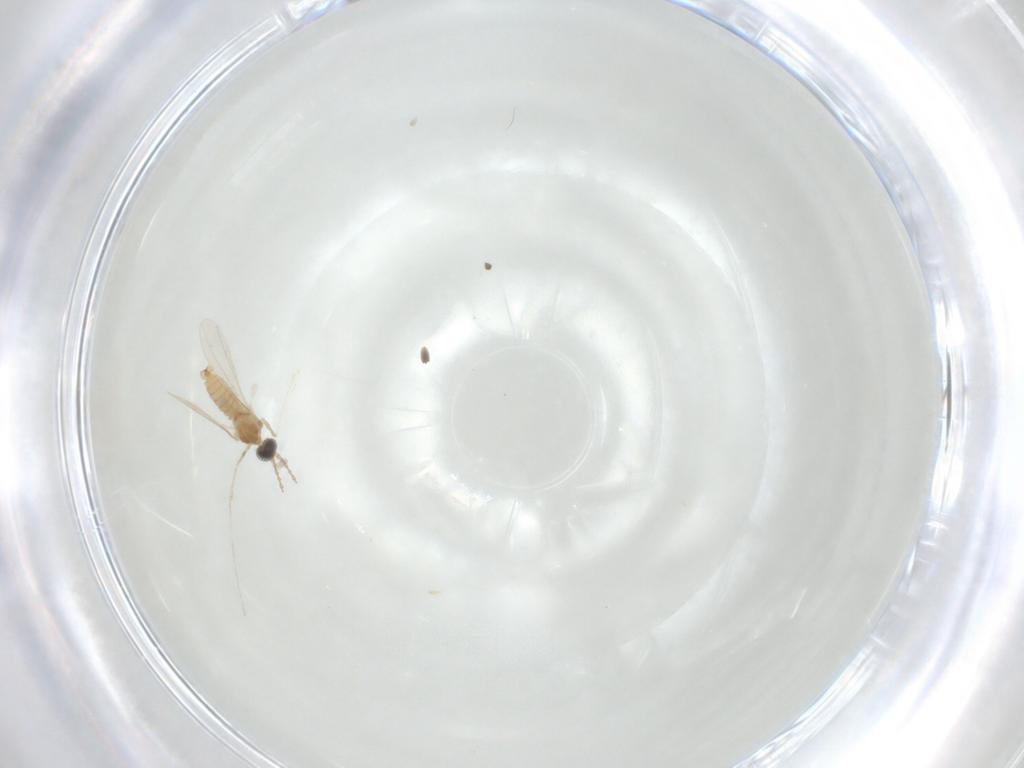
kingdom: Animalia
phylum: Arthropoda
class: Insecta
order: Diptera
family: Cecidomyiidae
